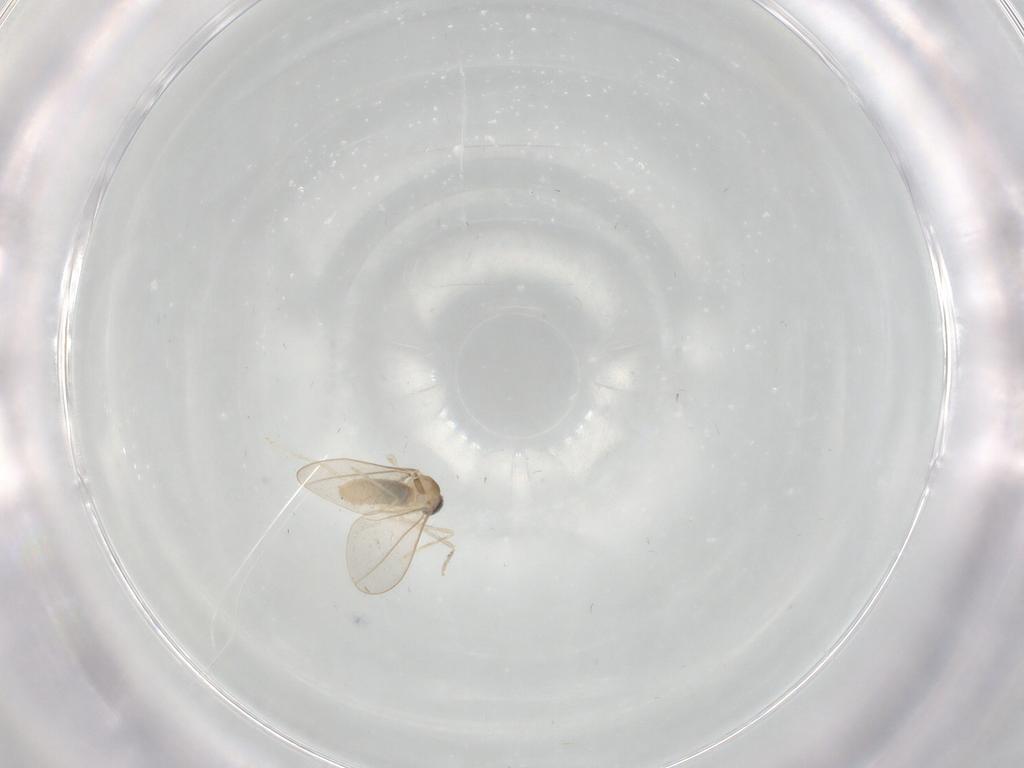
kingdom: Animalia
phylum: Arthropoda
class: Insecta
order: Diptera
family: Cecidomyiidae
